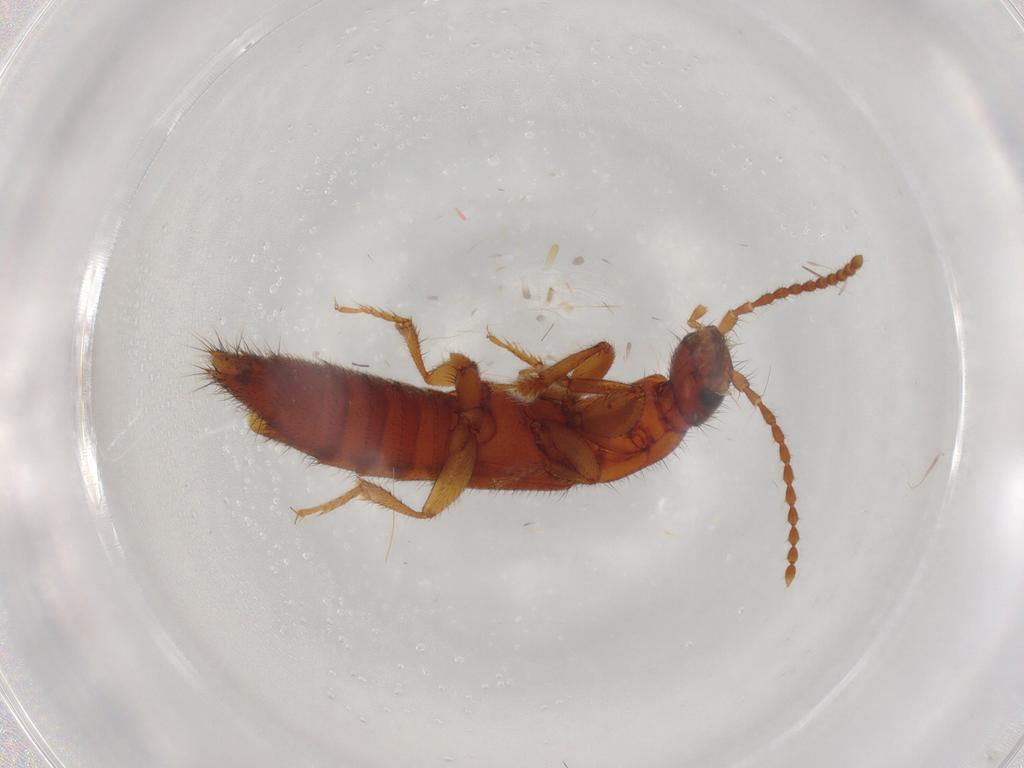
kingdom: Animalia
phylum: Arthropoda
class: Insecta
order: Coleoptera
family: Staphylinidae
